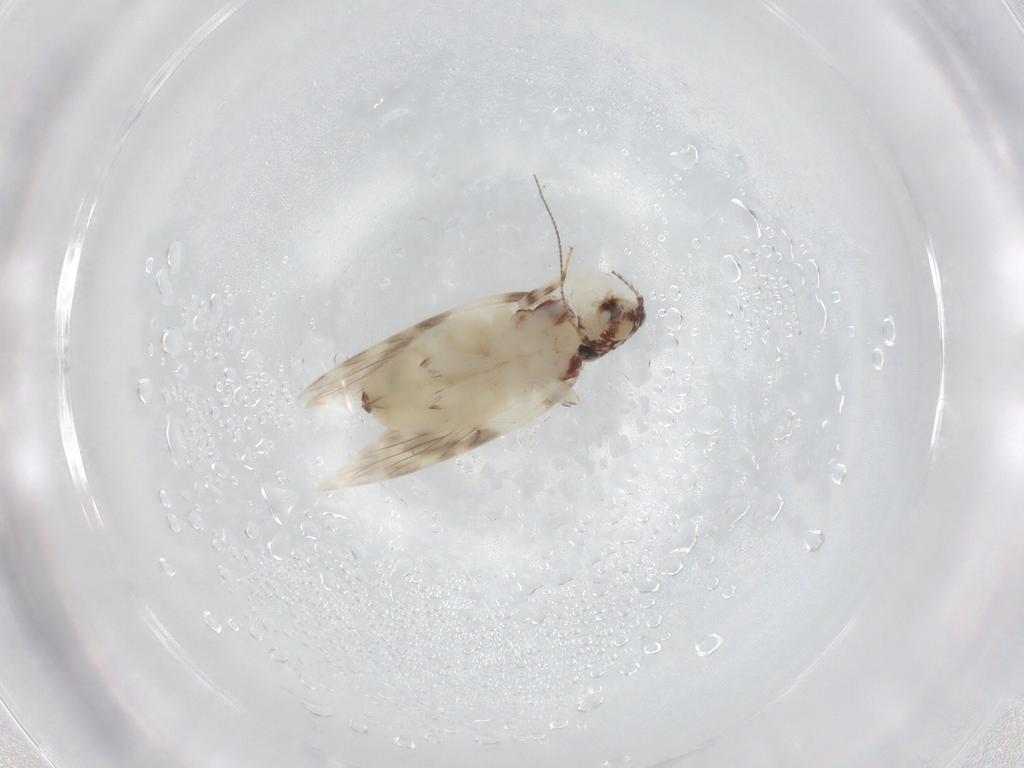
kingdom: Animalia
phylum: Arthropoda
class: Insecta
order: Psocodea
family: Lepidopsocidae
